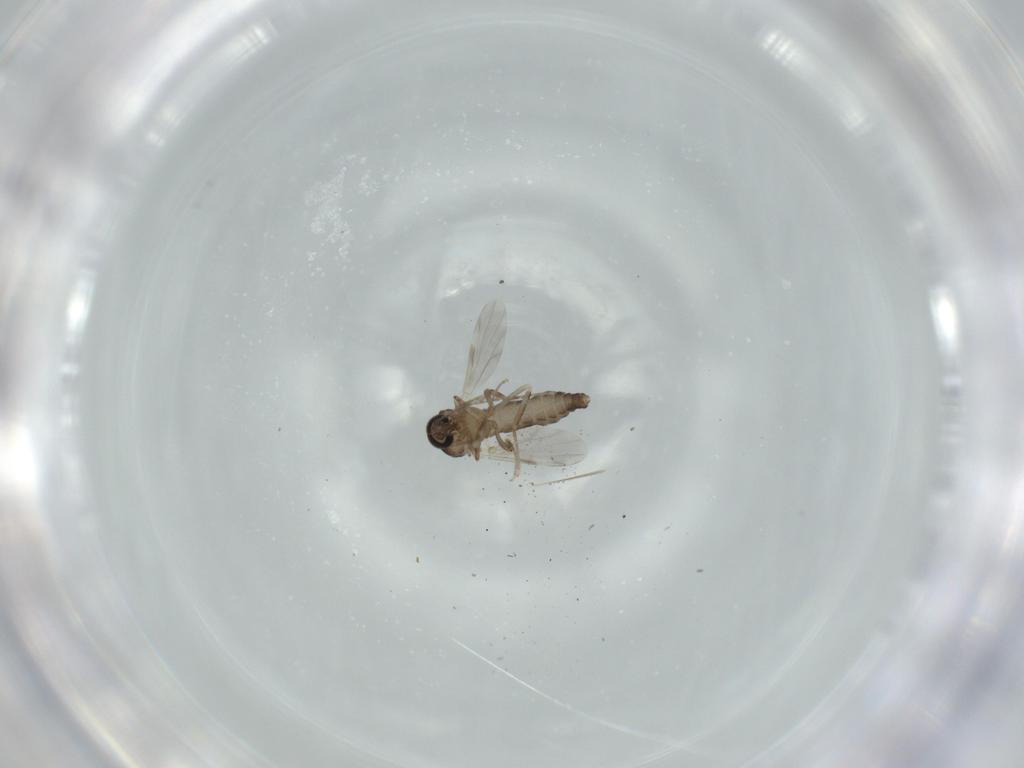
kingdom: Animalia
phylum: Arthropoda
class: Insecta
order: Diptera
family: Ceratopogonidae
